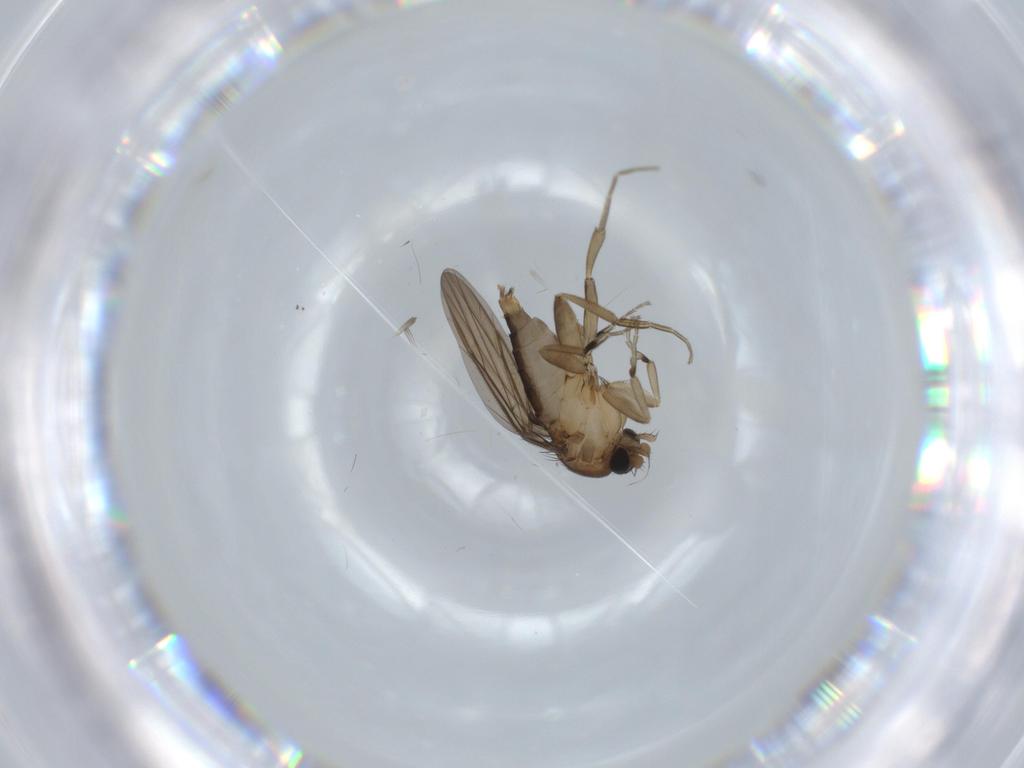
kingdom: Animalia
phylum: Arthropoda
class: Insecta
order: Diptera
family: Phoridae
